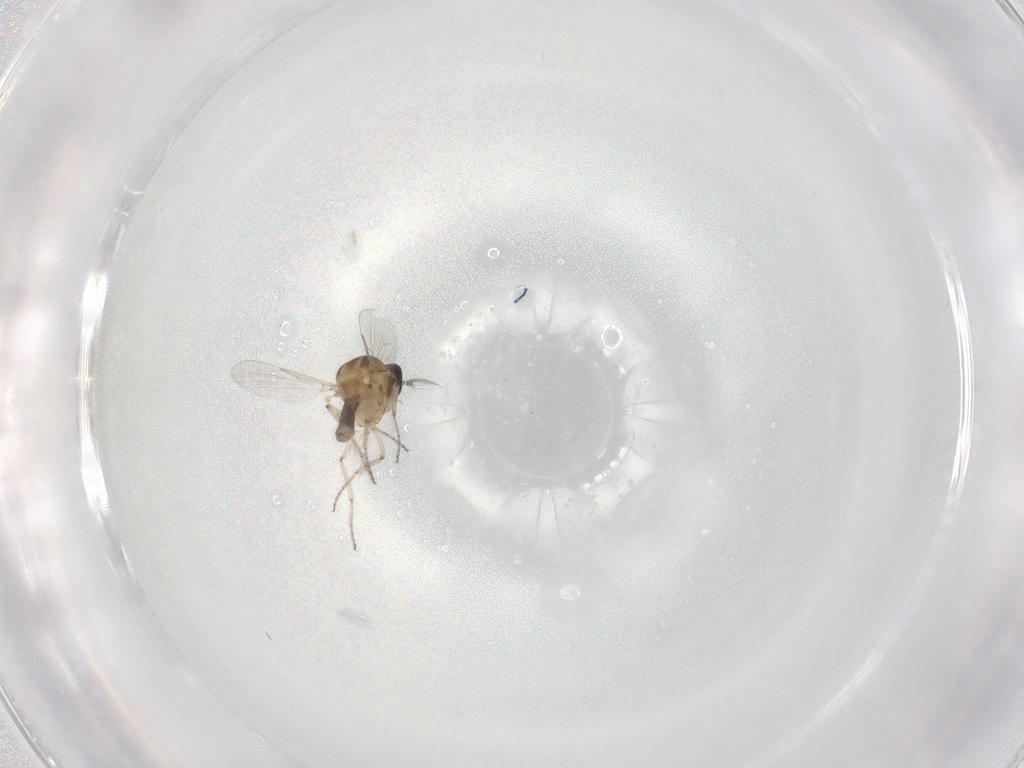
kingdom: Animalia
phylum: Arthropoda
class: Insecta
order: Diptera
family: Ceratopogonidae
